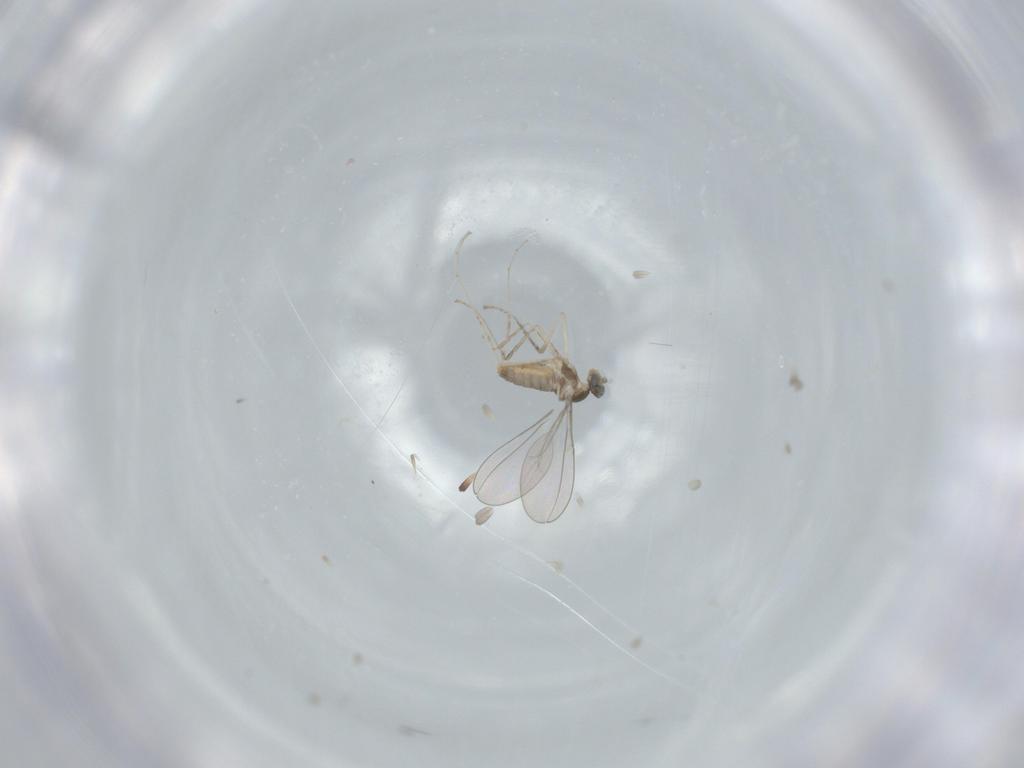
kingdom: Animalia
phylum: Arthropoda
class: Insecta
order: Diptera
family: Cecidomyiidae
